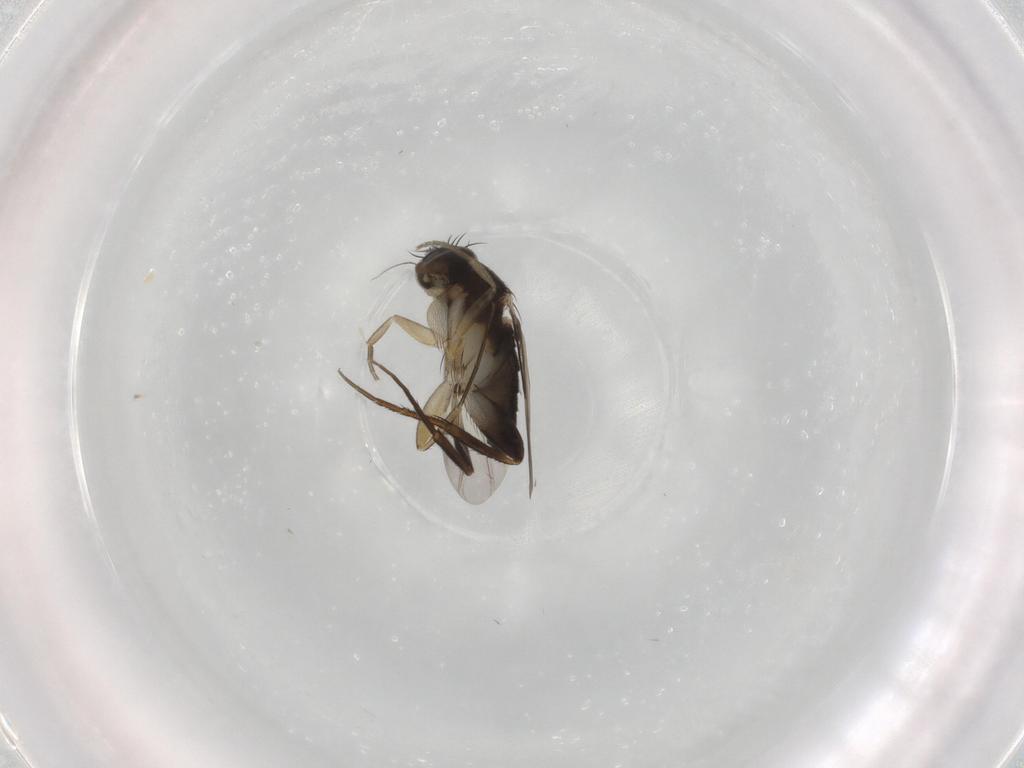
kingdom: Animalia
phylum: Arthropoda
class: Insecta
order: Diptera
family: Phoridae
